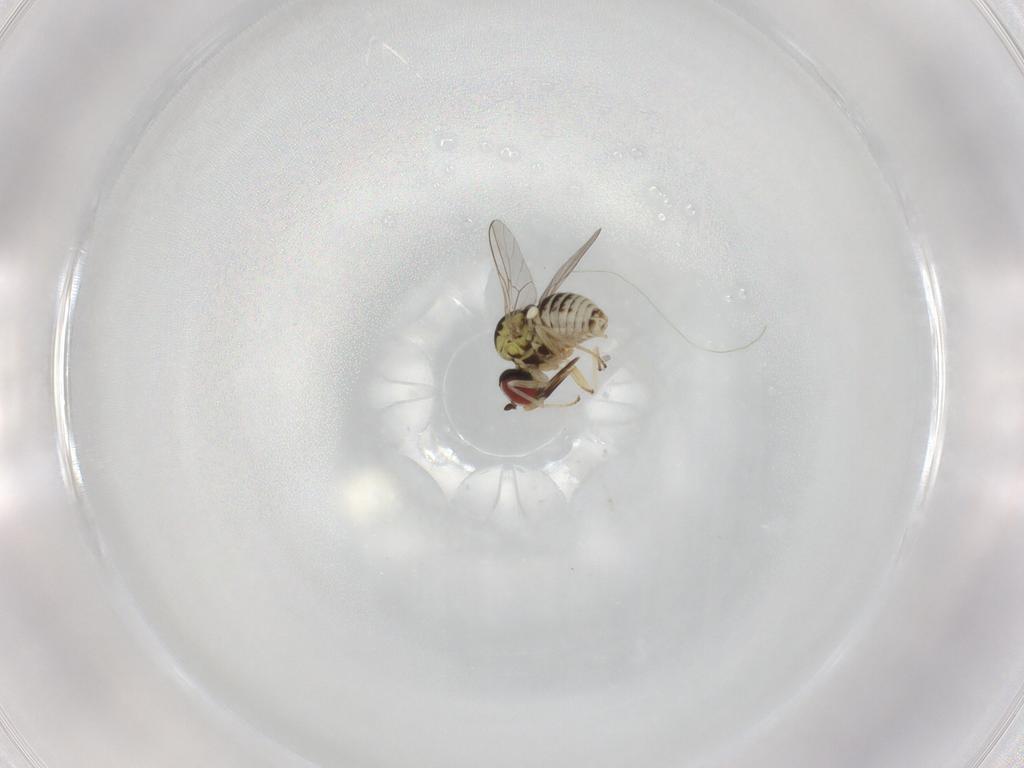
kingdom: Animalia
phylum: Arthropoda
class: Insecta
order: Diptera
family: Bombyliidae
